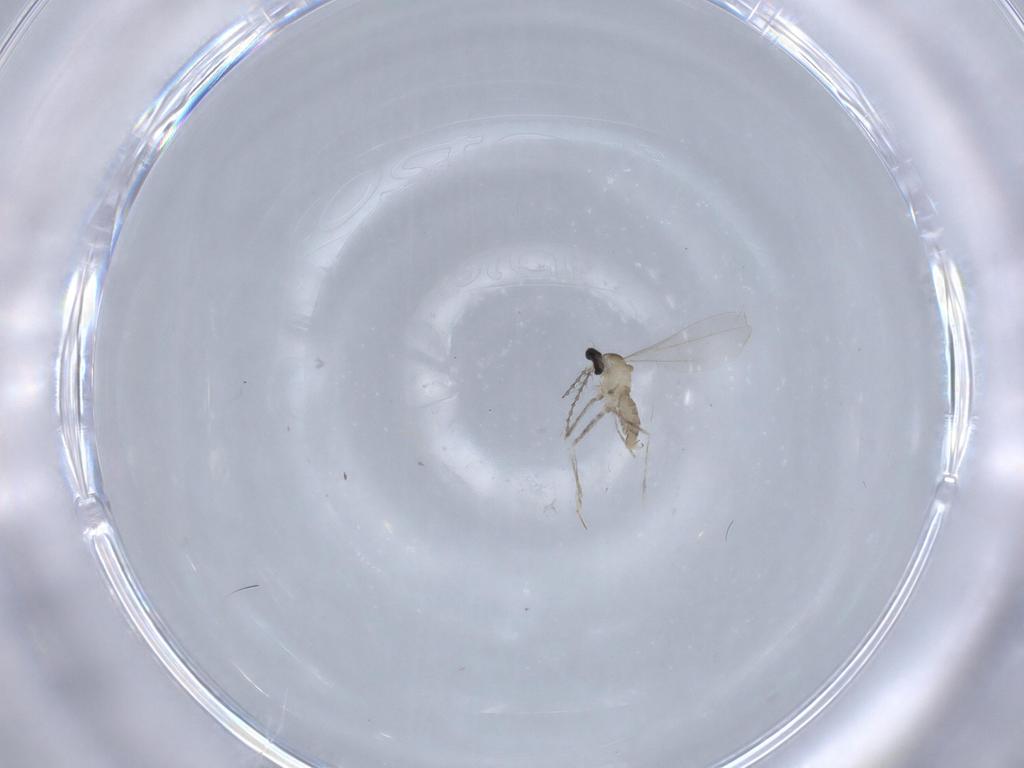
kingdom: Animalia
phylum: Arthropoda
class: Insecta
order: Diptera
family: Cecidomyiidae
